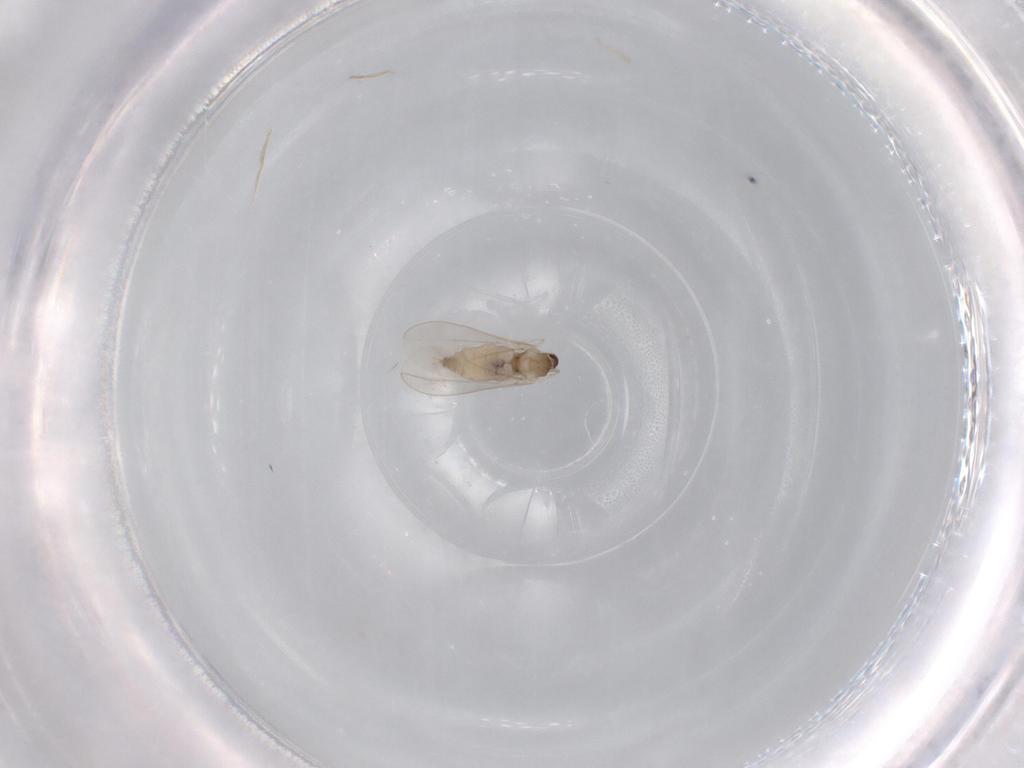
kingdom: Animalia
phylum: Arthropoda
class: Insecta
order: Diptera
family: Cecidomyiidae
